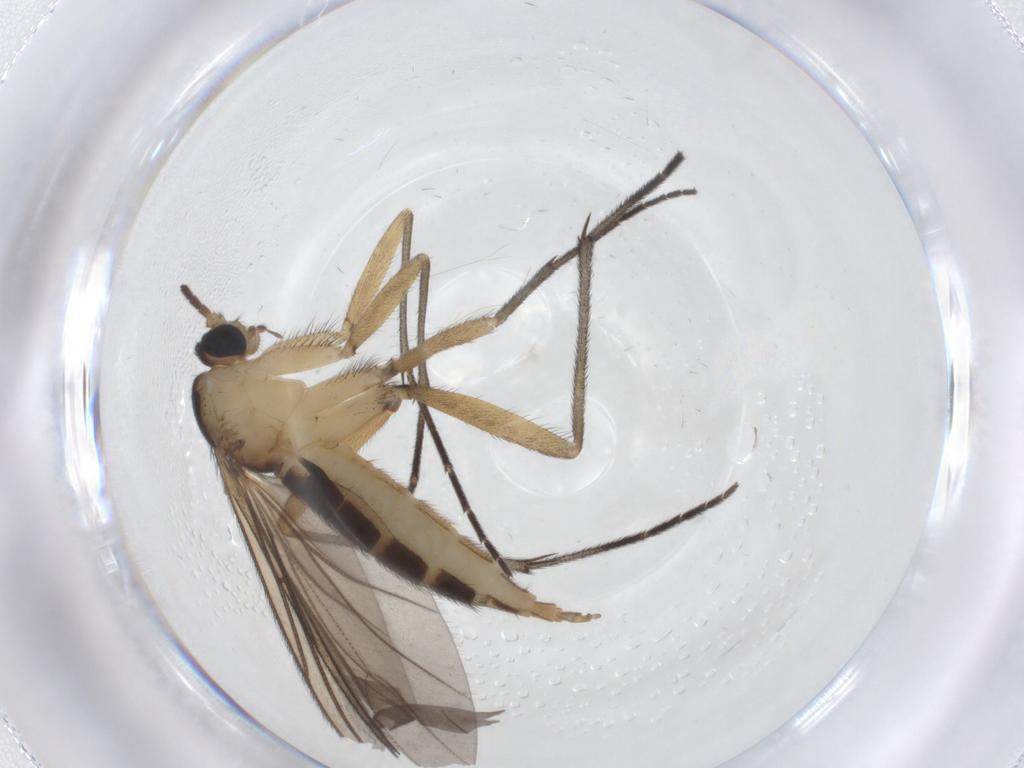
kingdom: Animalia
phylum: Arthropoda
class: Insecta
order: Diptera
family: Sciaridae
